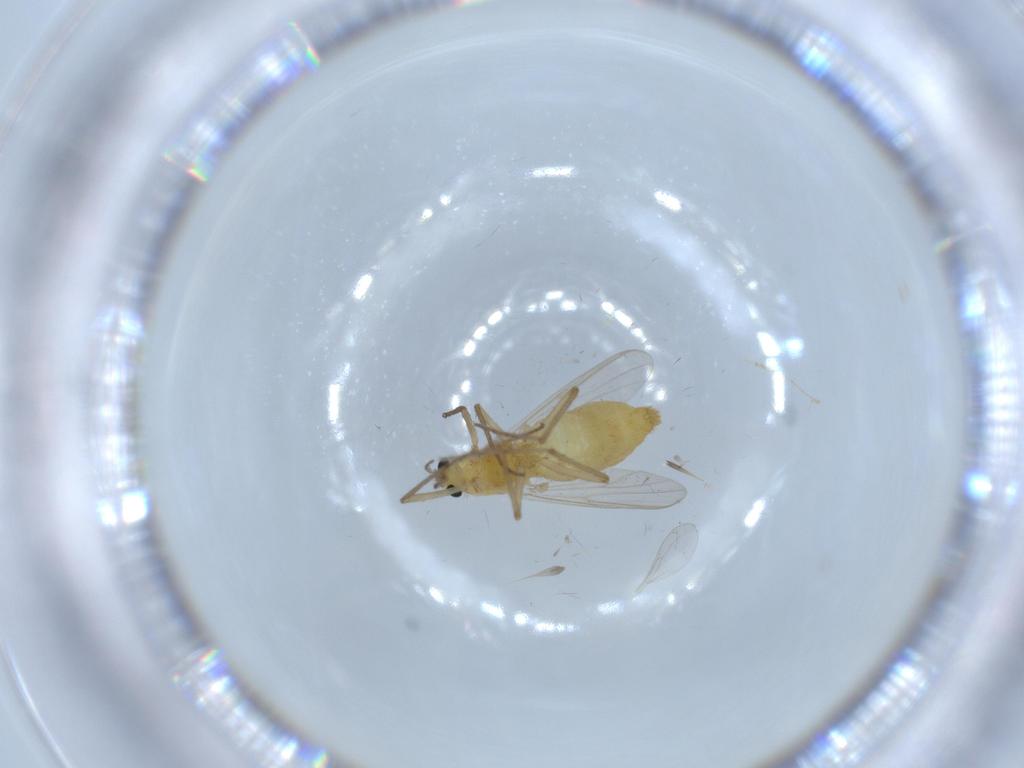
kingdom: Animalia
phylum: Arthropoda
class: Insecta
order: Diptera
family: Chironomidae
